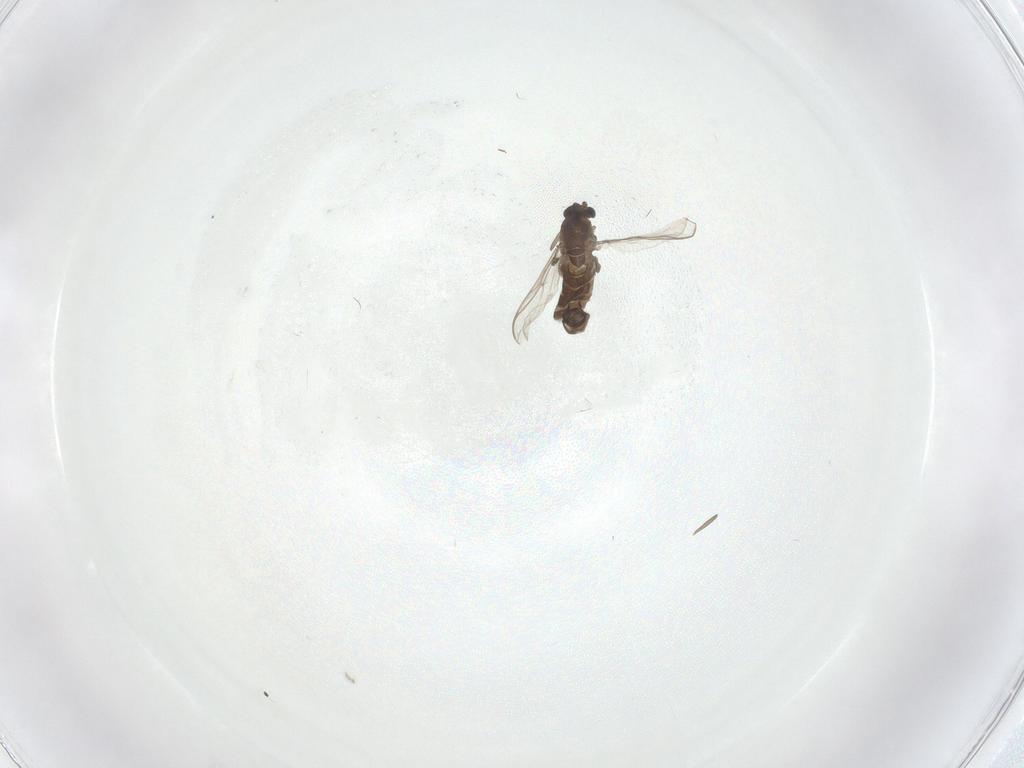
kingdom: Animalia
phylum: Arthropoda
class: Insecta
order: Diptera
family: Chironomidae
